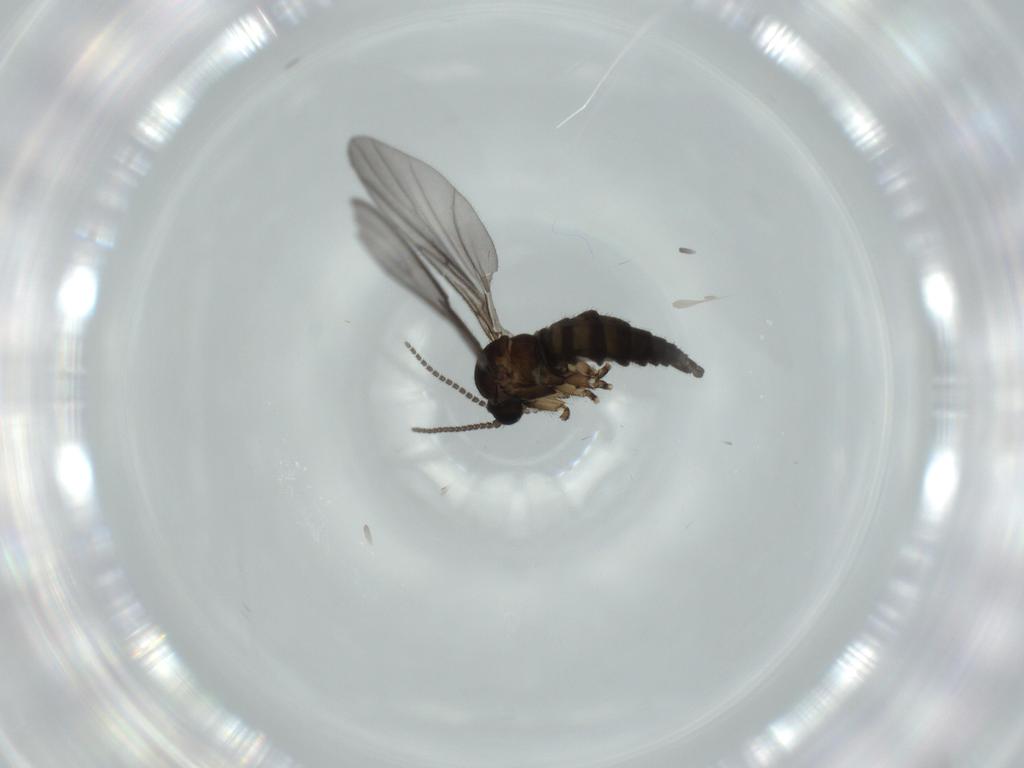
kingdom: Animalia
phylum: Arthropoda
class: Insecta
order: Diptera
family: Sciaridae
